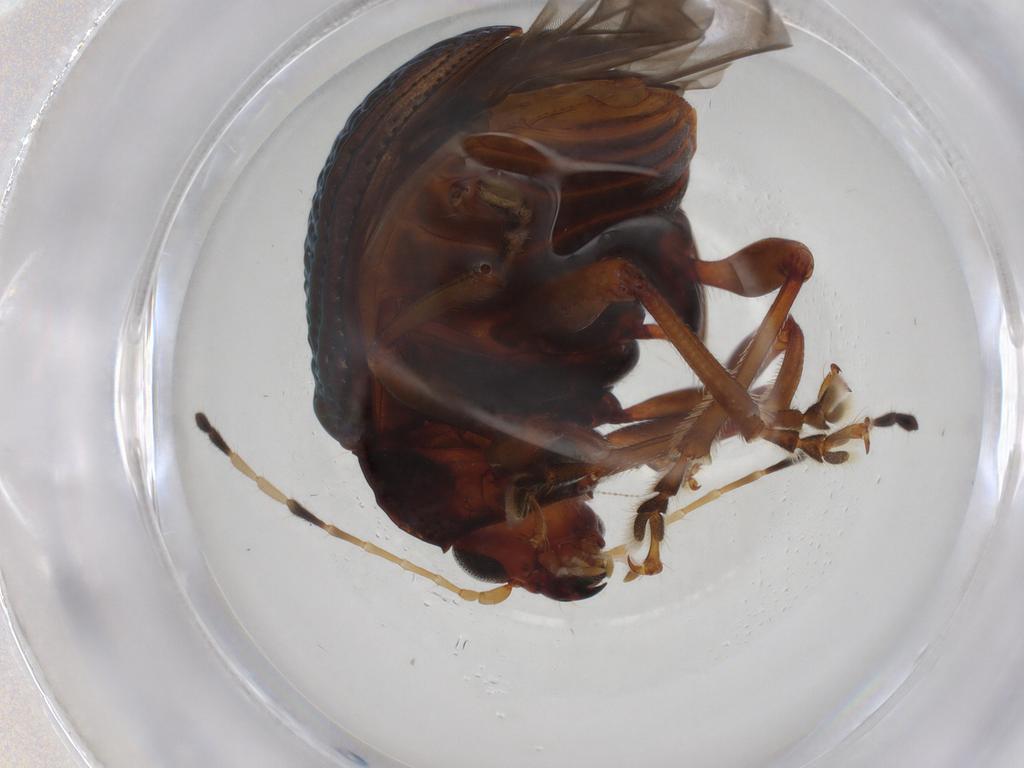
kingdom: Animalia
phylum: Arthropoda
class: Insecta
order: Coleoptera
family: Chrysomelidae
